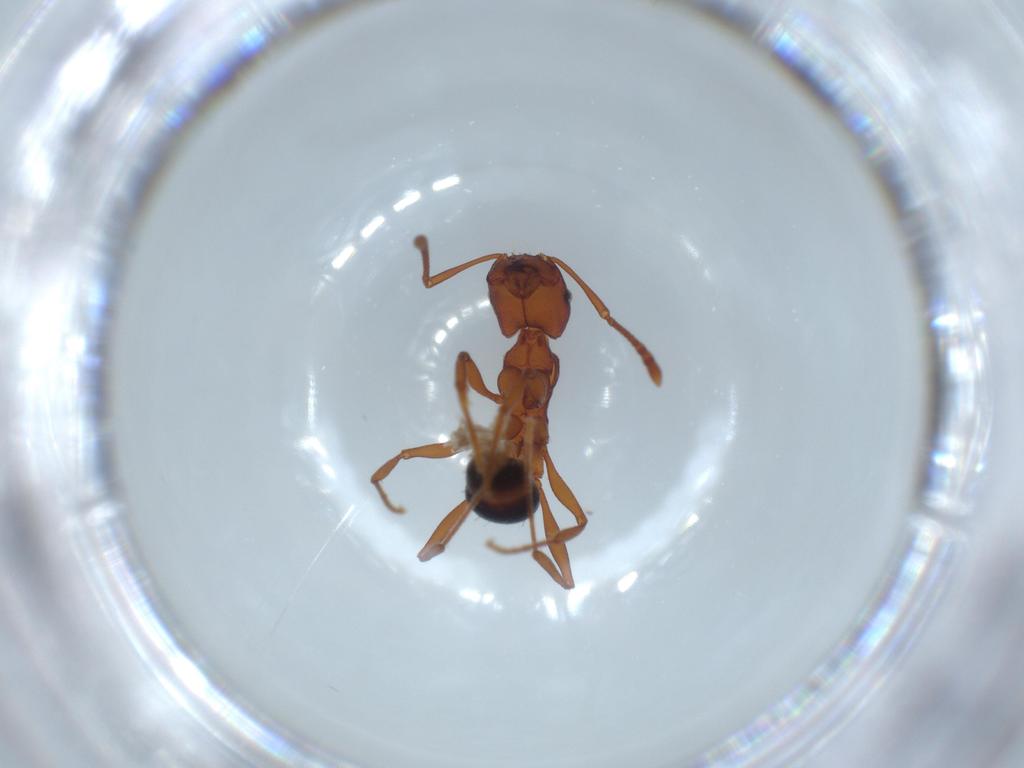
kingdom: Animalia
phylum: Arthropoda
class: Insecta
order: Hymenoptera
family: Formicidae
